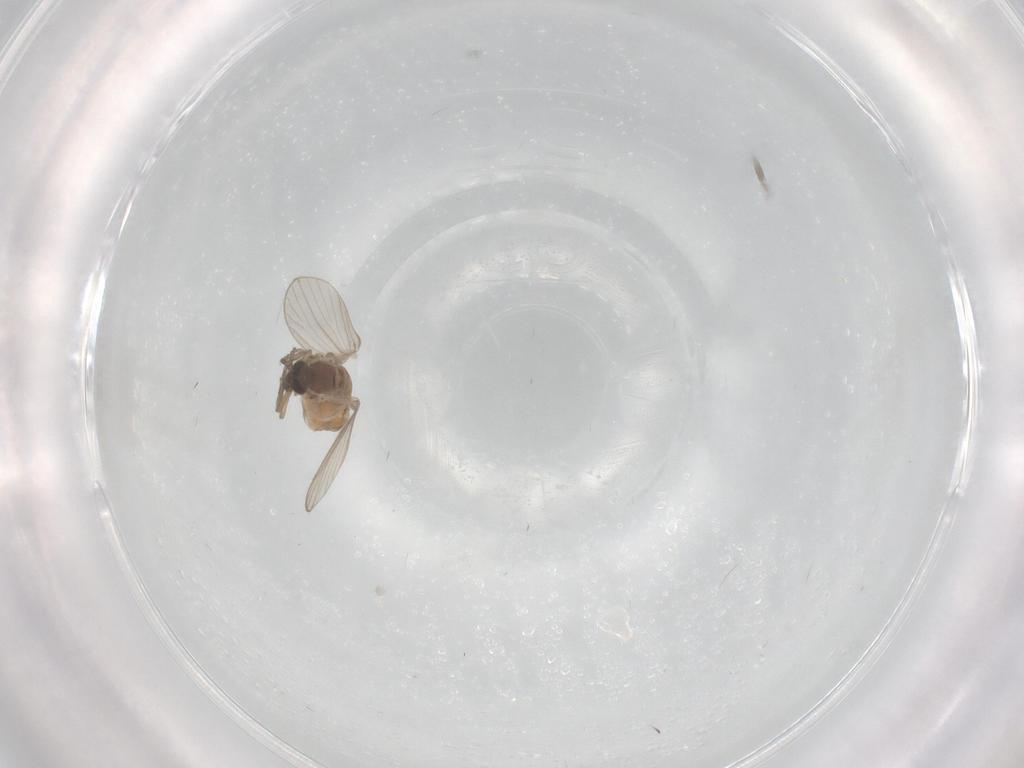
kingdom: Animalia
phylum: Arthropoda
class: Insecta
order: Diptera
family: Psychodidae
